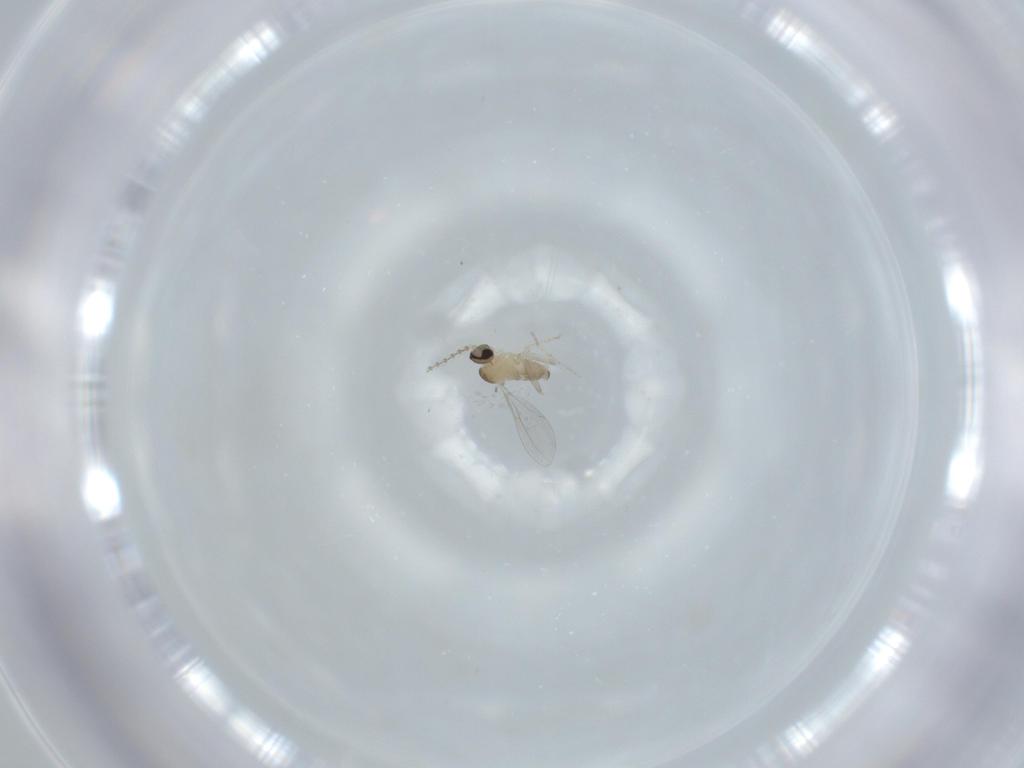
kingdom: Animalia
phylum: Arthropoda
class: Insecta
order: Diptera
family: Cecidomyiidae
